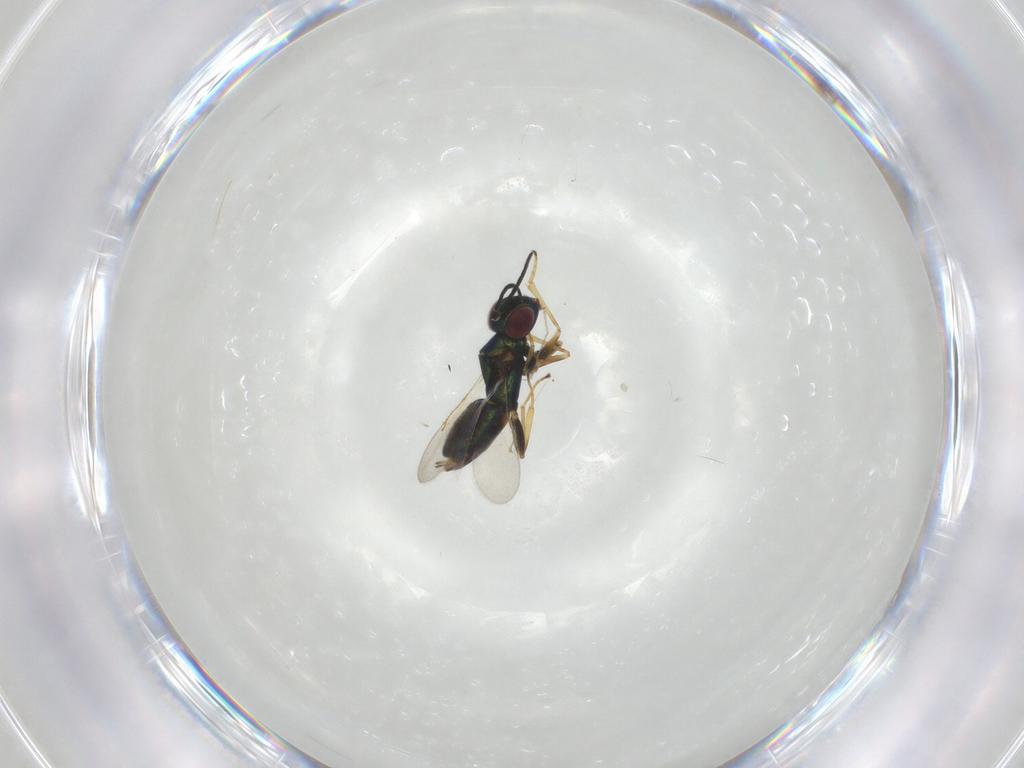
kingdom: Animalia
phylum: Arthropoda
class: Insecta
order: Hymenoptera
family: Encyrtidae
